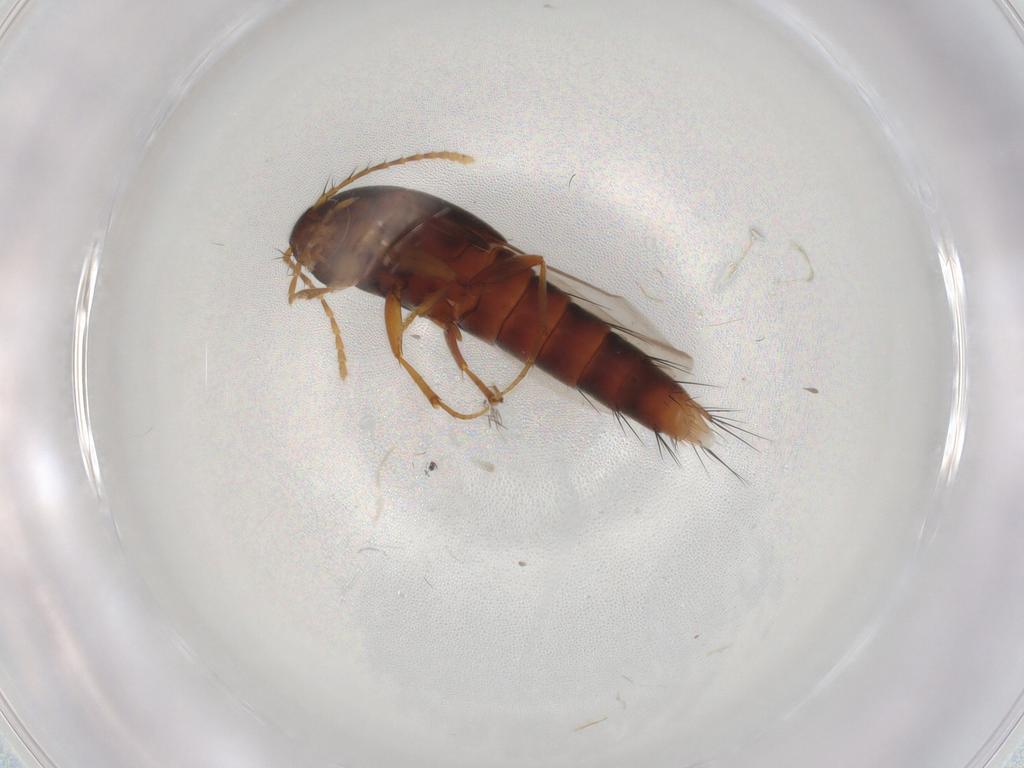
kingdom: Animalia
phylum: Arthropoda
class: Insecta
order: Coleoptera
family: Staphylinidae
